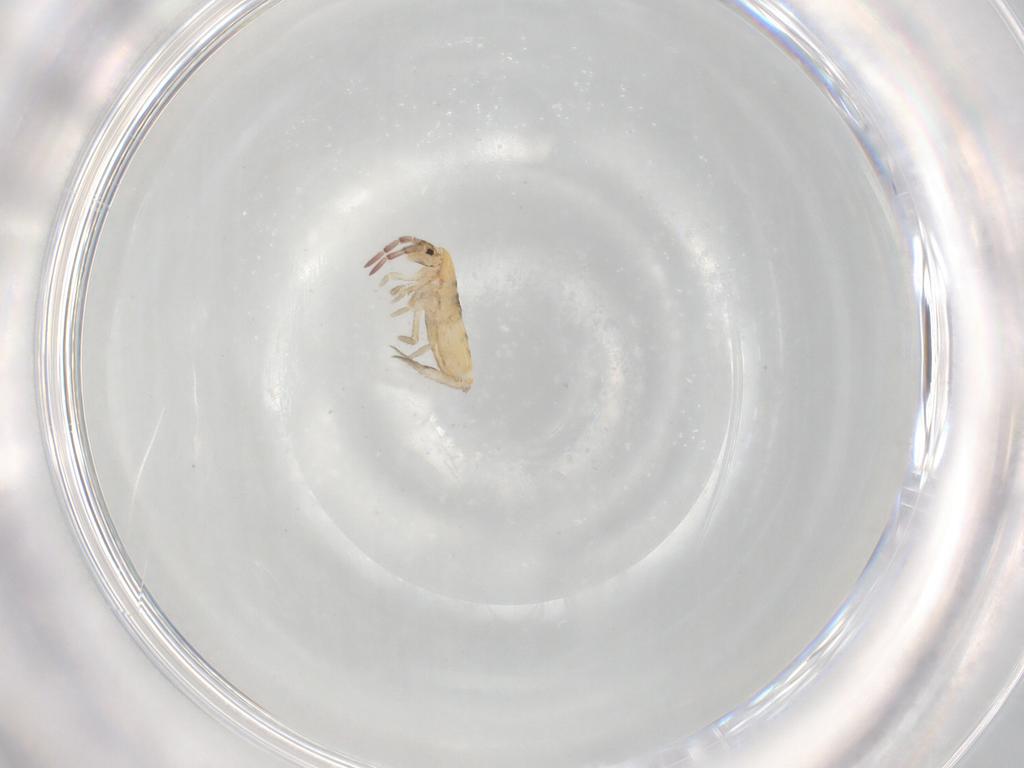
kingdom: Animalia
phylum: Arthropoda
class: Collembola
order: Entomobryomorpha
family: Entomobryidae
